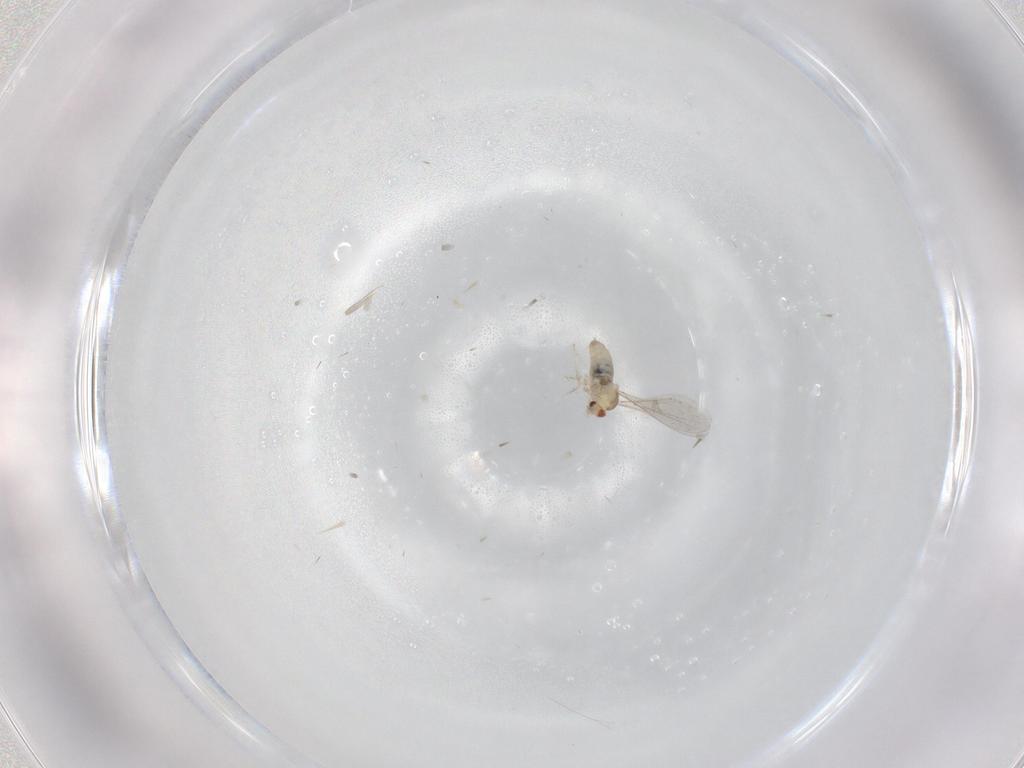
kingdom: Animalia
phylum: Arthropoda
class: Insecta
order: Diptera
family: Cecidomyiidae
